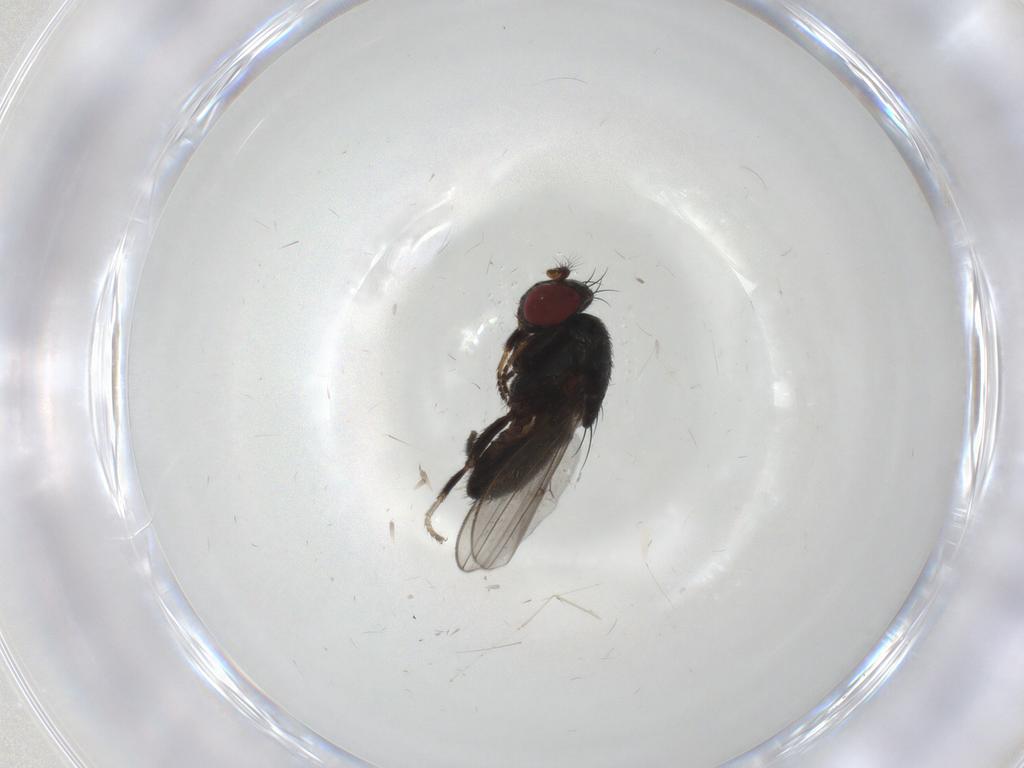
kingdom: Animalia
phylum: Arthropoda
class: Insecta
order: Diptera
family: Ephydridae
